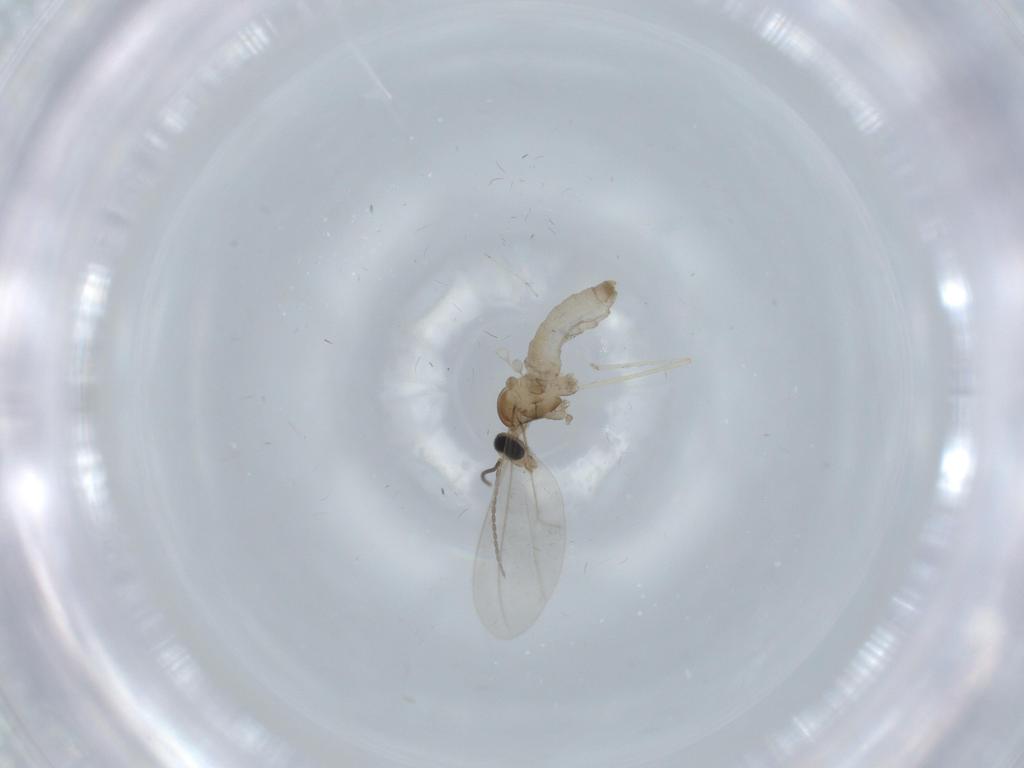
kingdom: Animalia
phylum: Arthropoda
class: Insecta
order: Diptera
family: Cecidomyiidae
